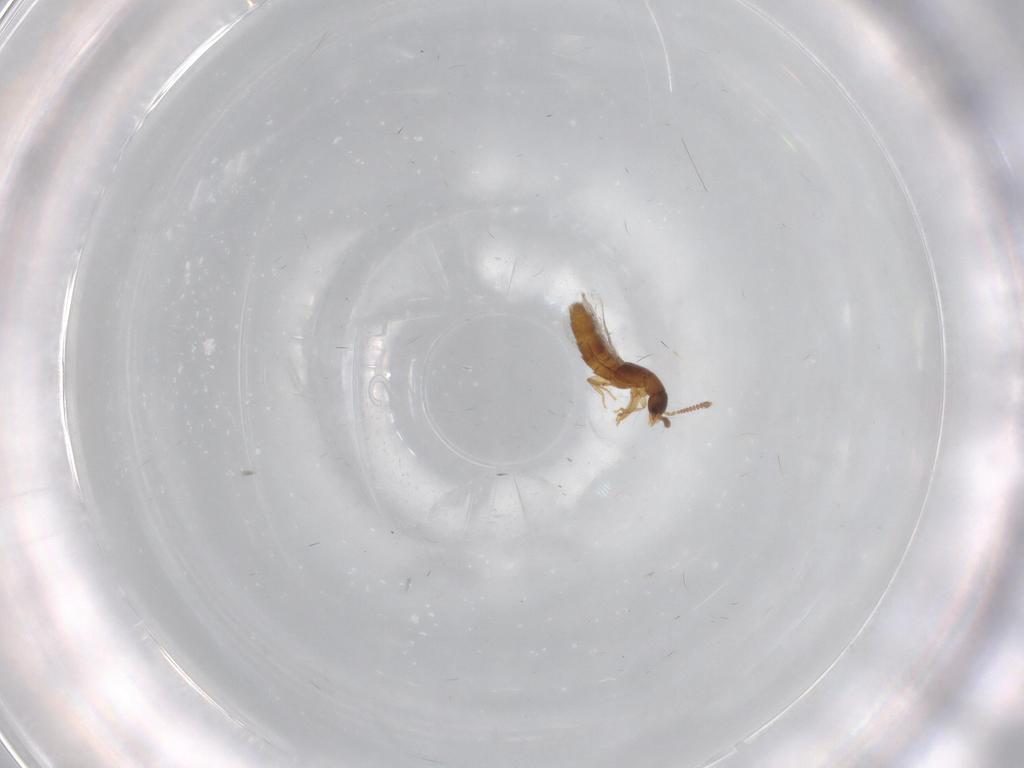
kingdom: Animalia
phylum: Arthropoda
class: Insecta
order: Coleoptera
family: Staphylinidae
